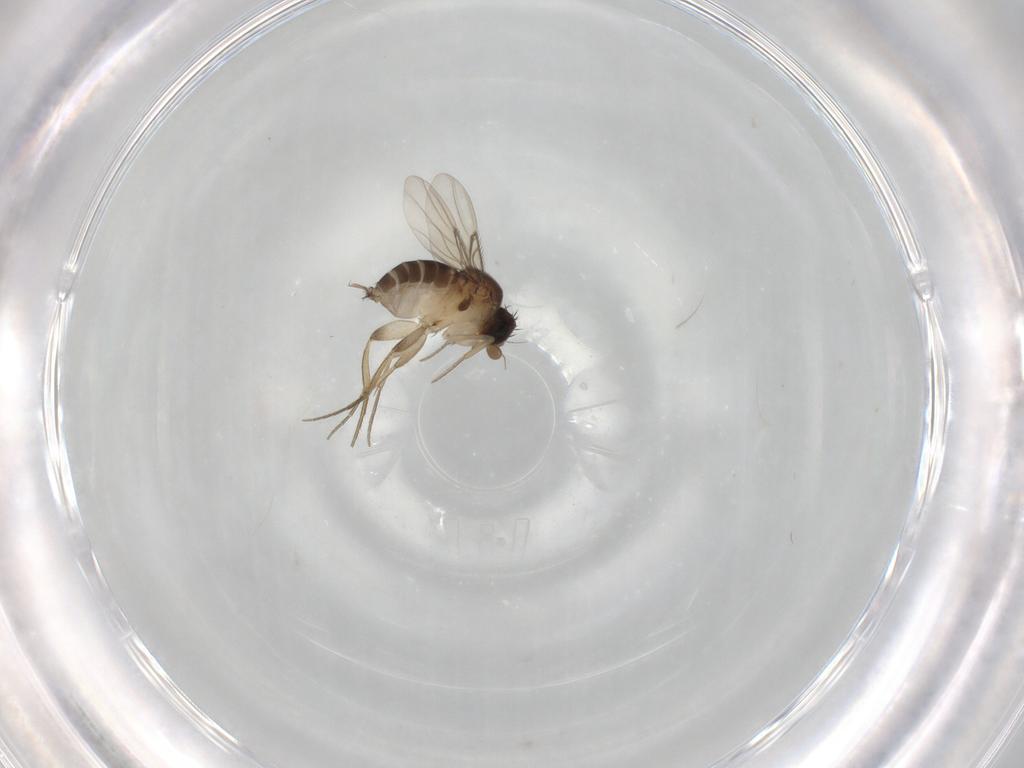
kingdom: Animalia
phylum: Arthropoda
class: Insecta
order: Diptera
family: Phoridae
